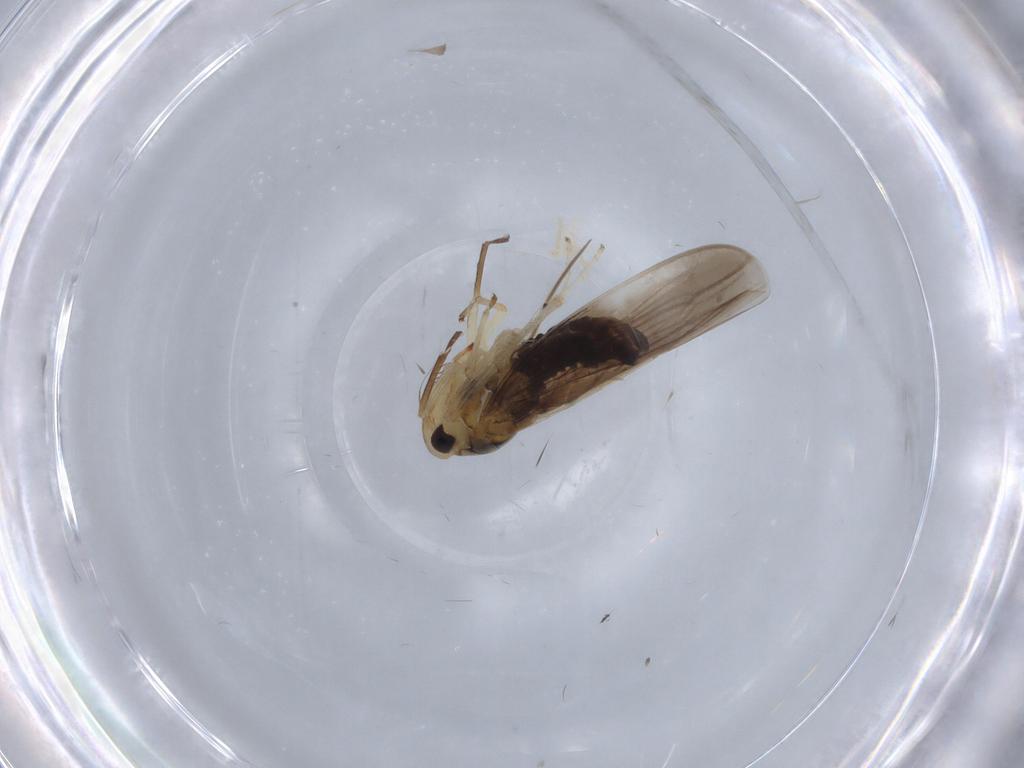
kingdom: Animalia
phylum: Arthropoda
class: Insecta
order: Hemiptera
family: Cicadellidae
